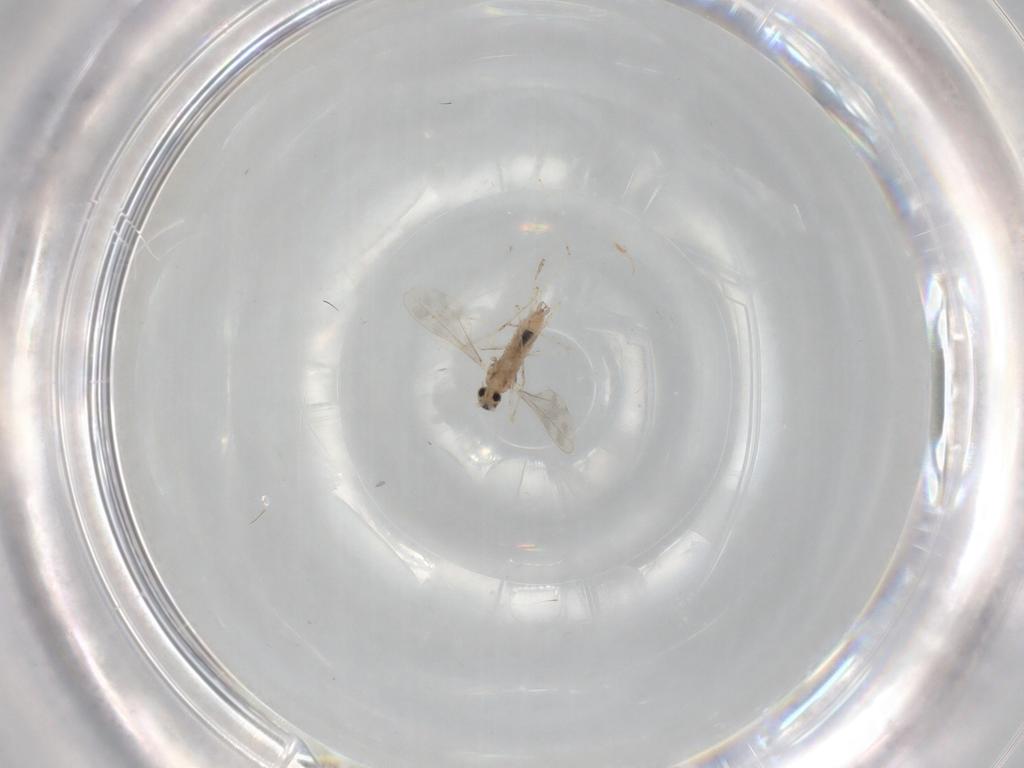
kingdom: Animalia
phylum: Arthropoda
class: Insecta
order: Diptera
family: Cecidomyiidae
